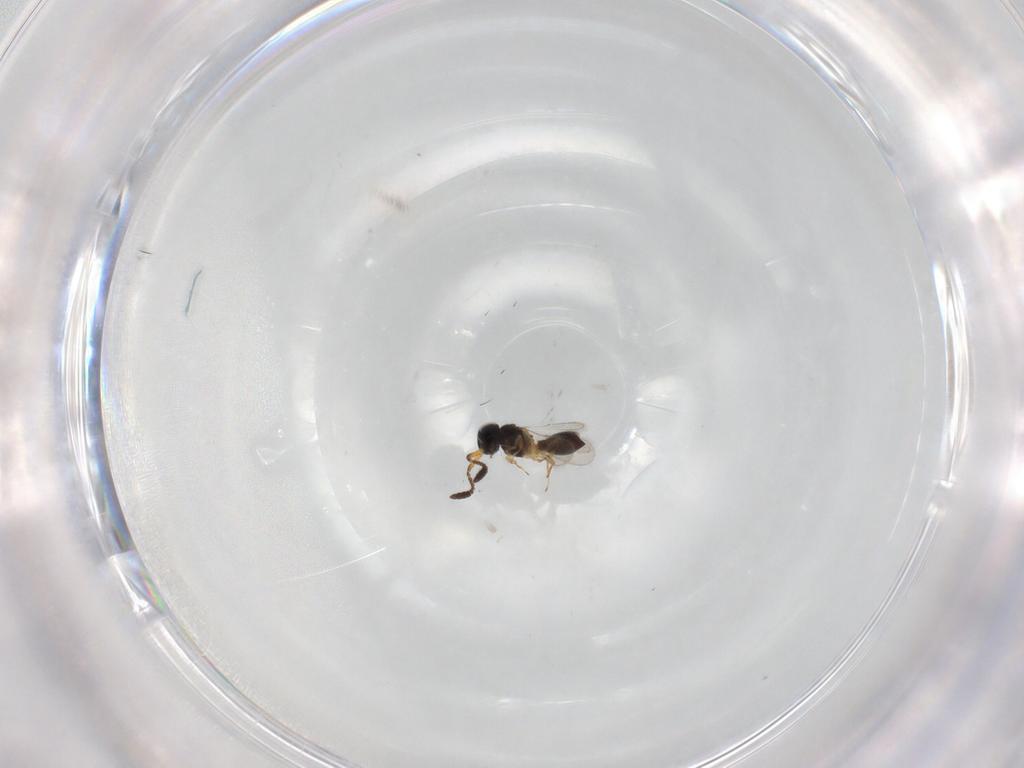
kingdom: Animalia
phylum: Arthropoda
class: Insecta
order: Hymenoptera
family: Scelionidae
